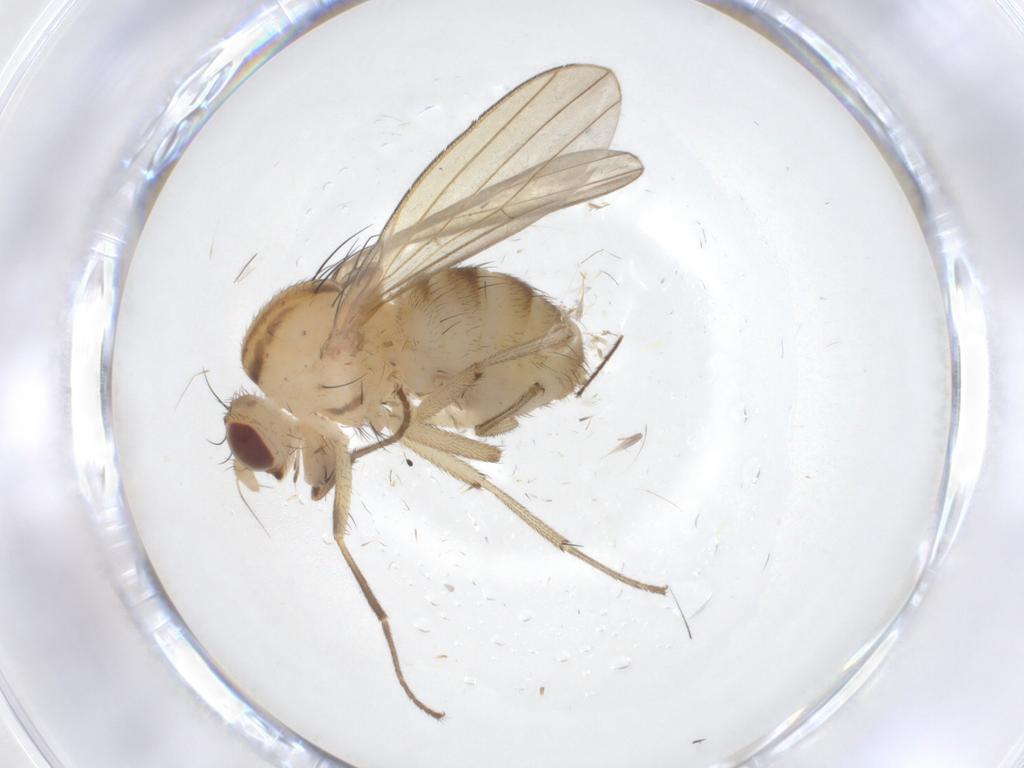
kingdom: Animalia
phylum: Arthropoda
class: Insecta
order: Diptera
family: Lauxaniidae
